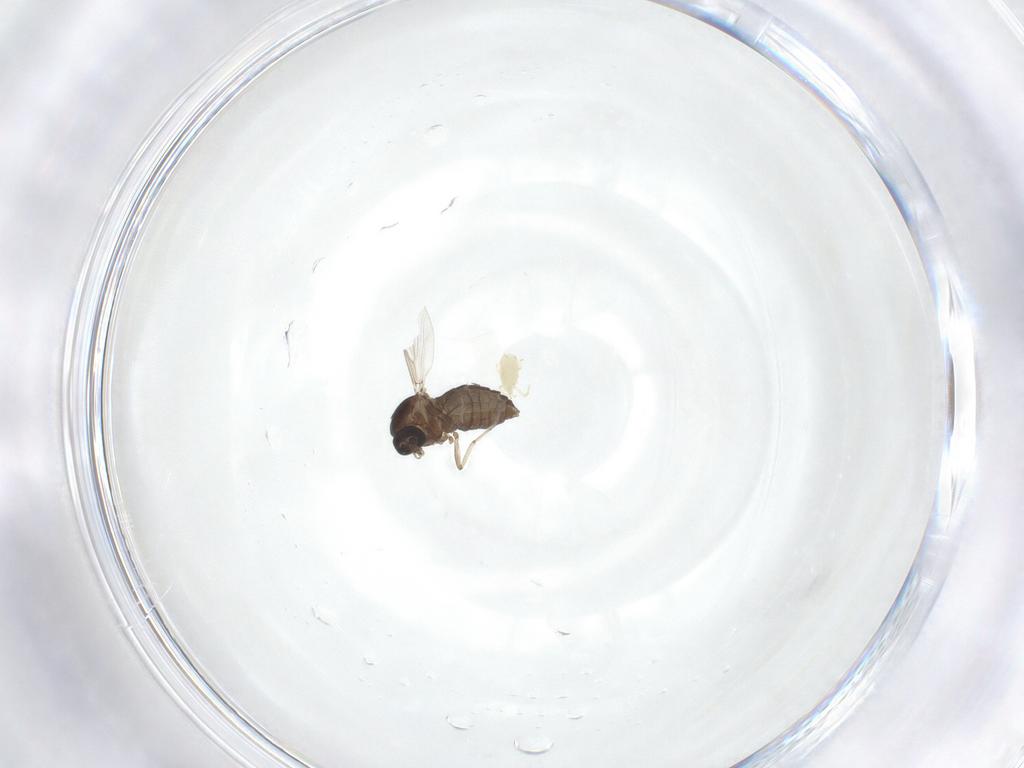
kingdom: Animalia
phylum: Arthropoda
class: Insecta
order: Diptera
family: Ceratopogonidae
